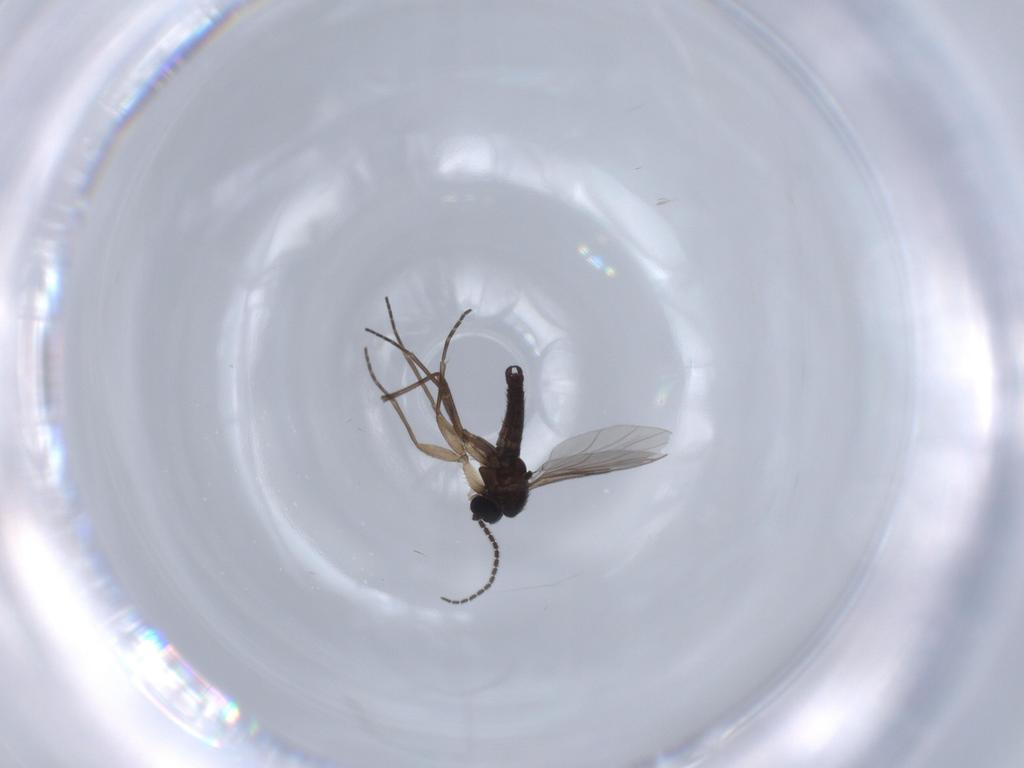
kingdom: Animalia
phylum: Arthropoda
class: Insecta
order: Diptera
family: Sciaridae
